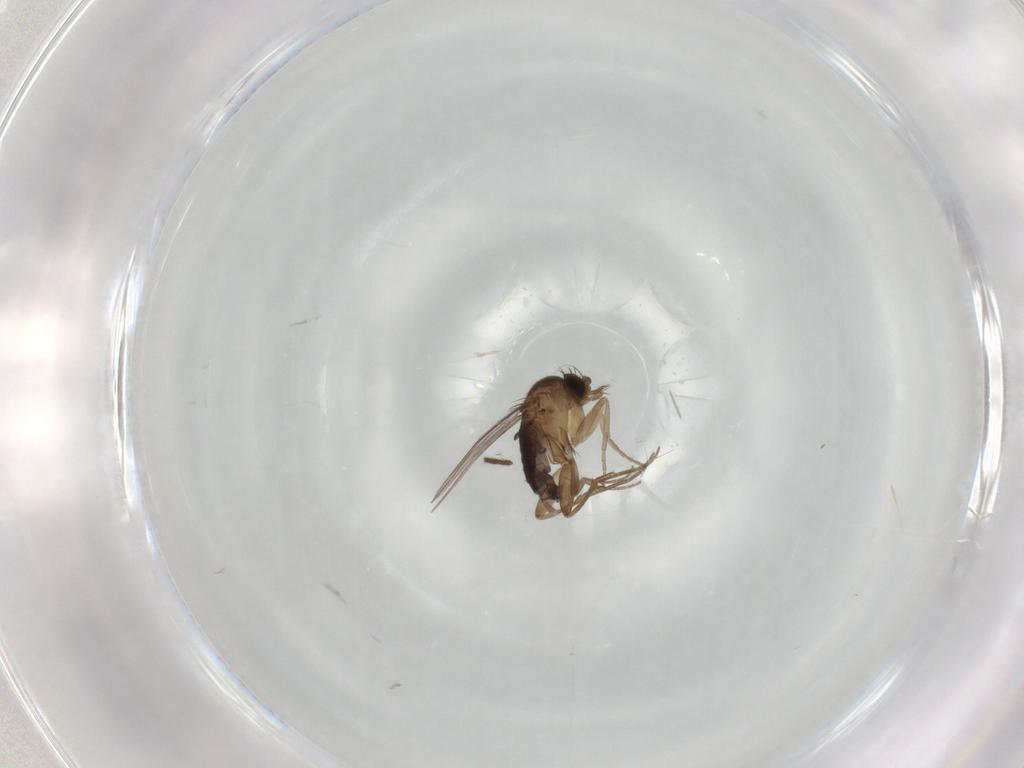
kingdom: Animalia
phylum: Arthropoda
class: Insecta
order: Diptera
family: Phoridae
